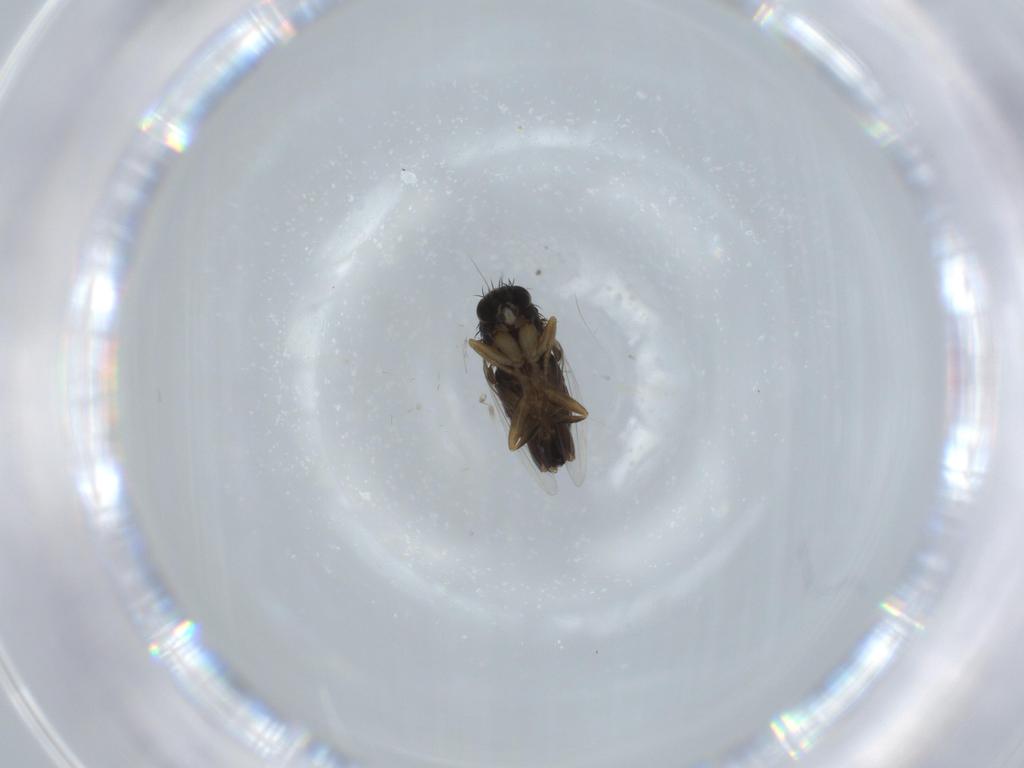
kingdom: Animalia
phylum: Arthropoda
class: Insecta
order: Diptera
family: Phoridae
